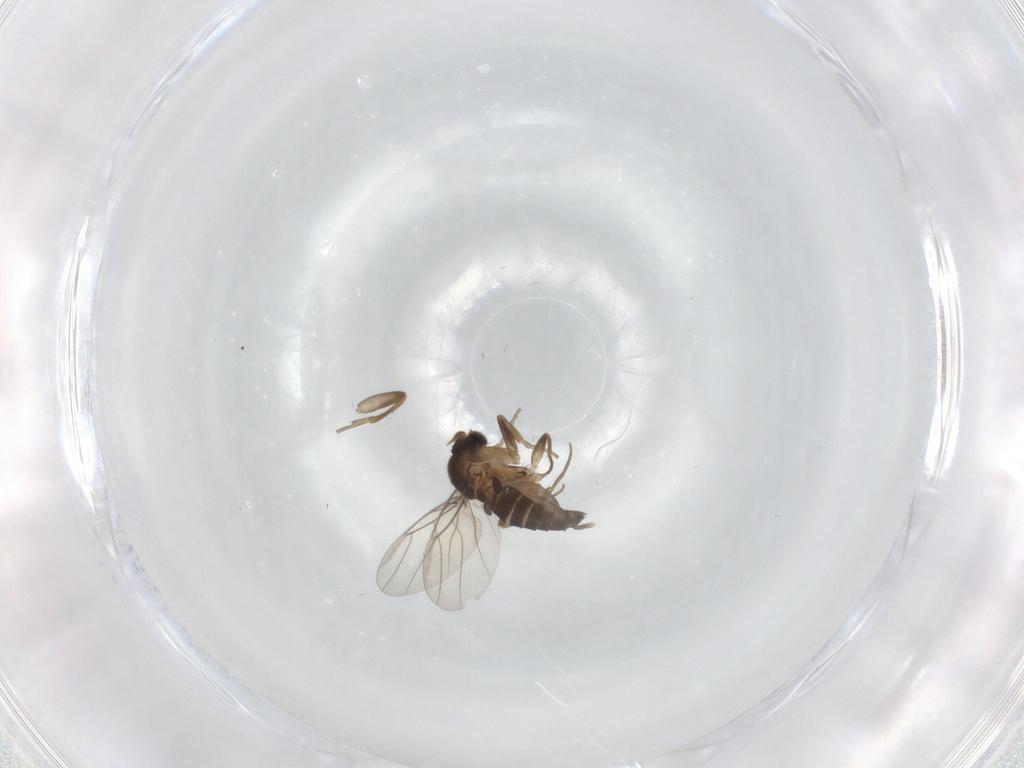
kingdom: Animalia
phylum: Arthropoda
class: Insecta
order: Diptera
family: Phoridae
